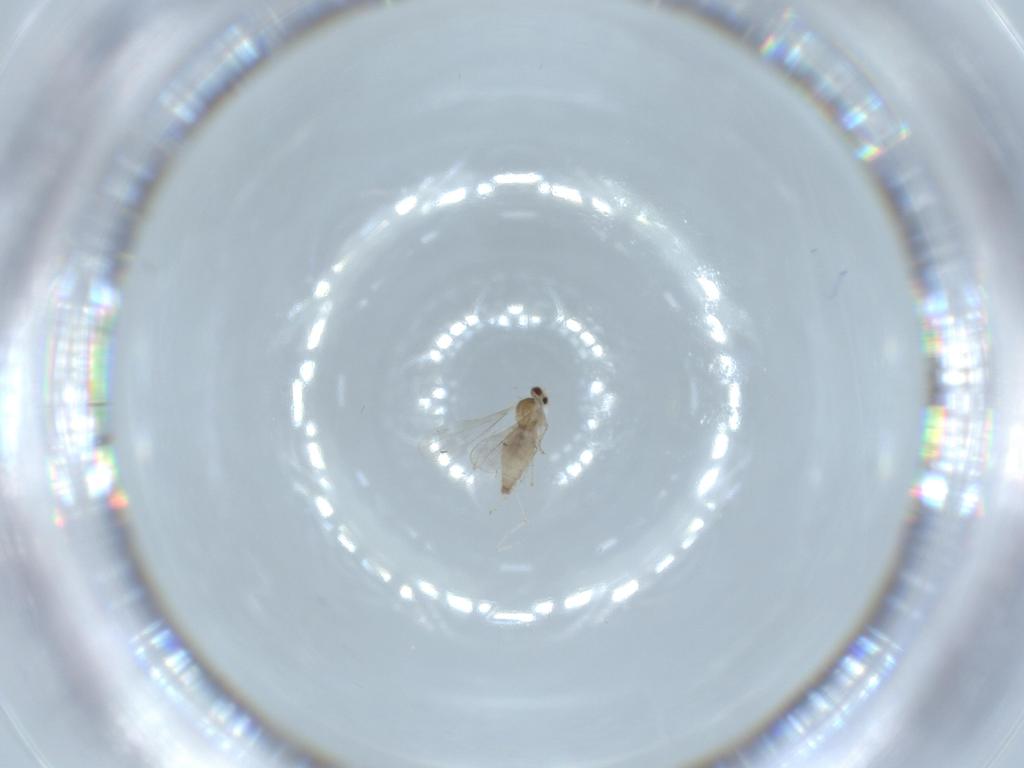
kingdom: Animalia
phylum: Arthropoda
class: Insecta
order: Diptera
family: Cecidomyiidae
